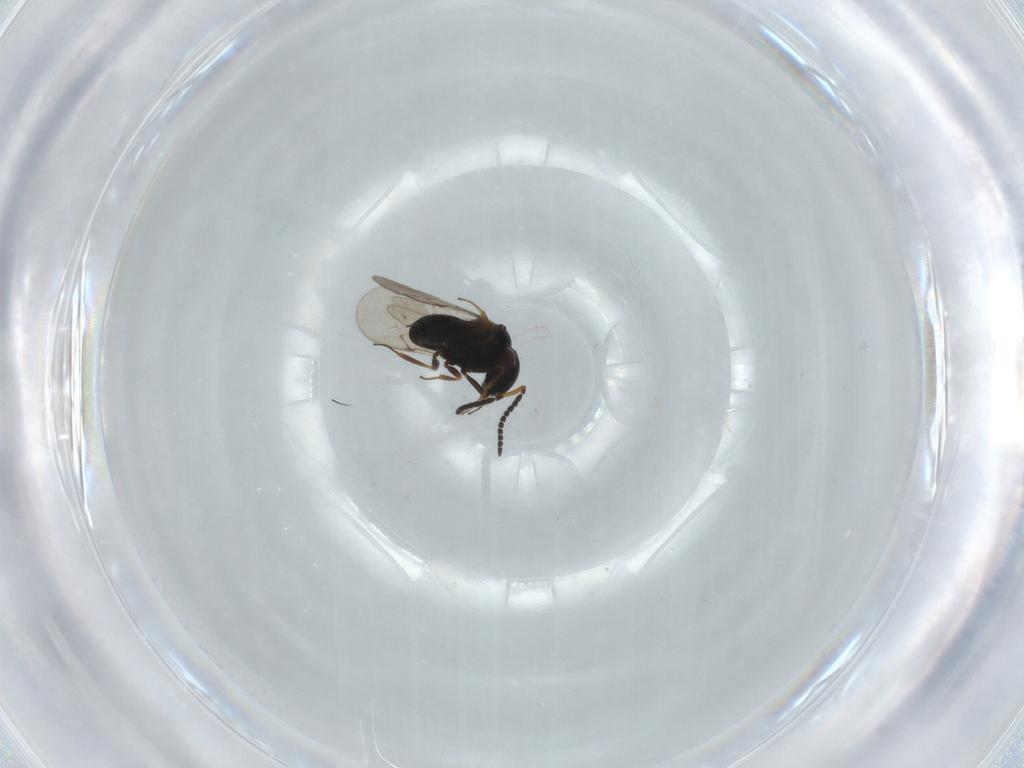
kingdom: Animalia
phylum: Arthropoda
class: Insecta
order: Hymenoptera
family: Scelionidae
